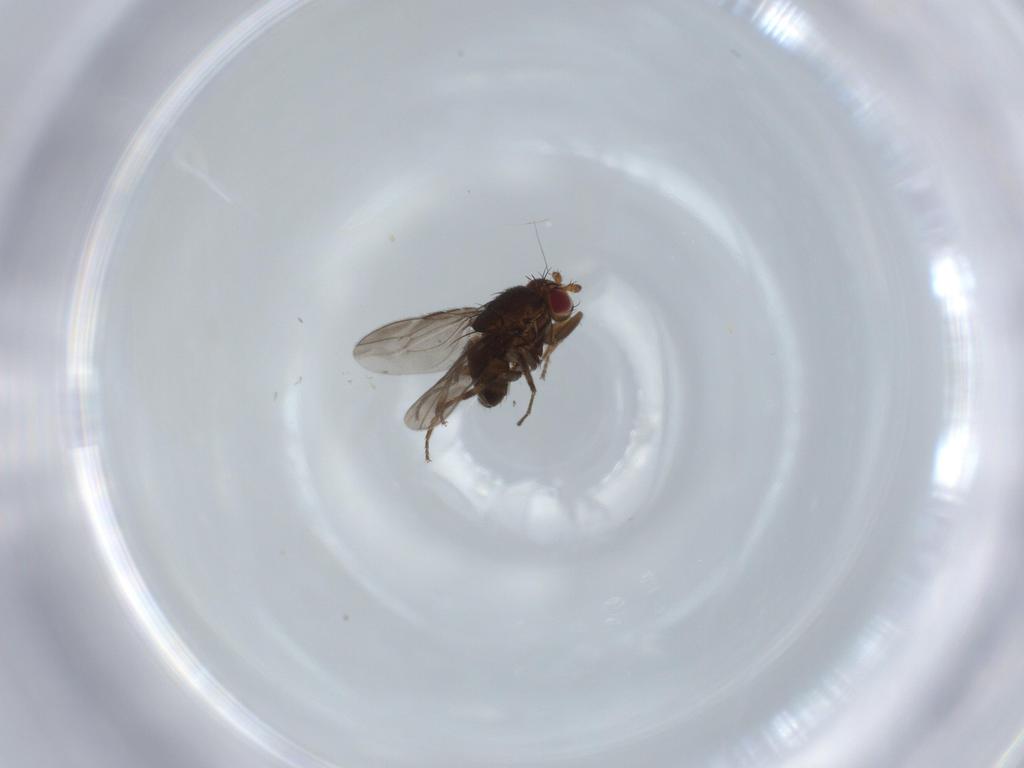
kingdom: Animalia
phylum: Arthropoda
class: Insecta
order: Diptera
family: Sphaeroceridae
